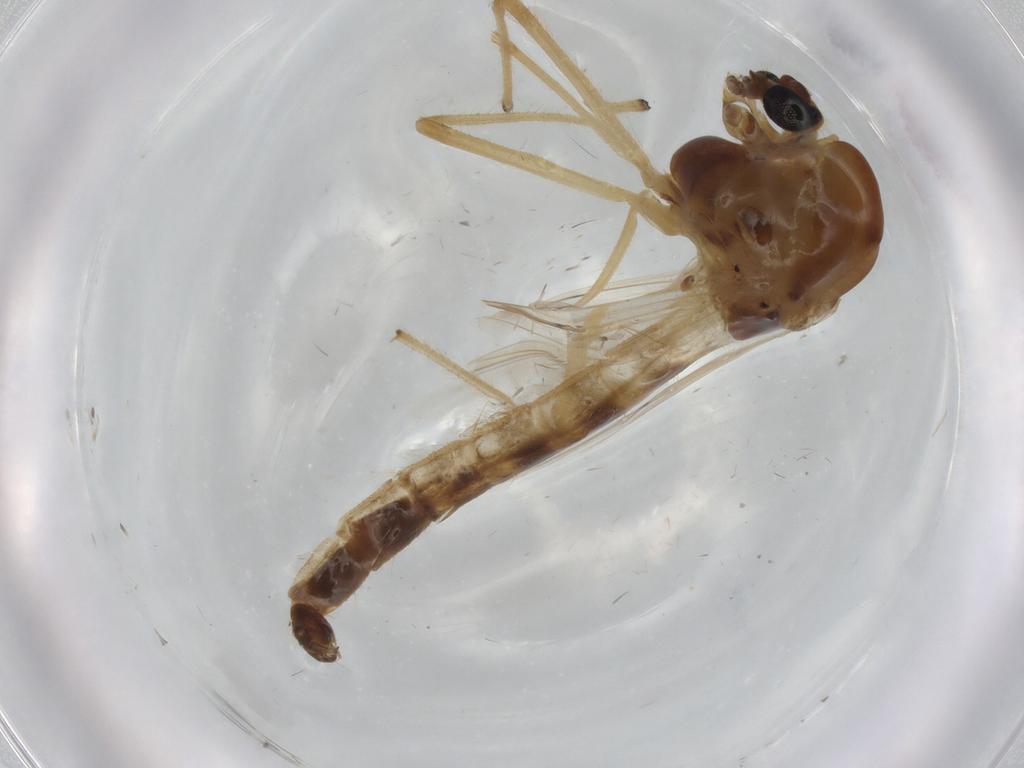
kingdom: Animalia
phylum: Arthropoda
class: Insecta
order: Diptera
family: Chironomidae
